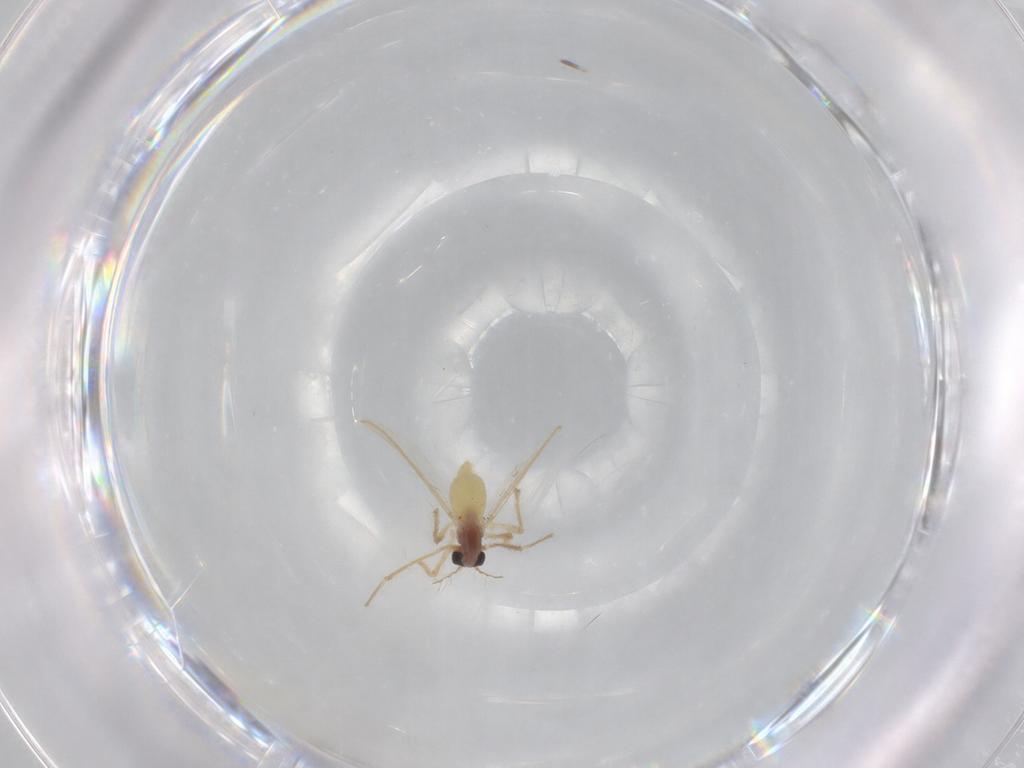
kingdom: Animalia
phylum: Arthropoda
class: Insecta
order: Diptera
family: Chironomidae
